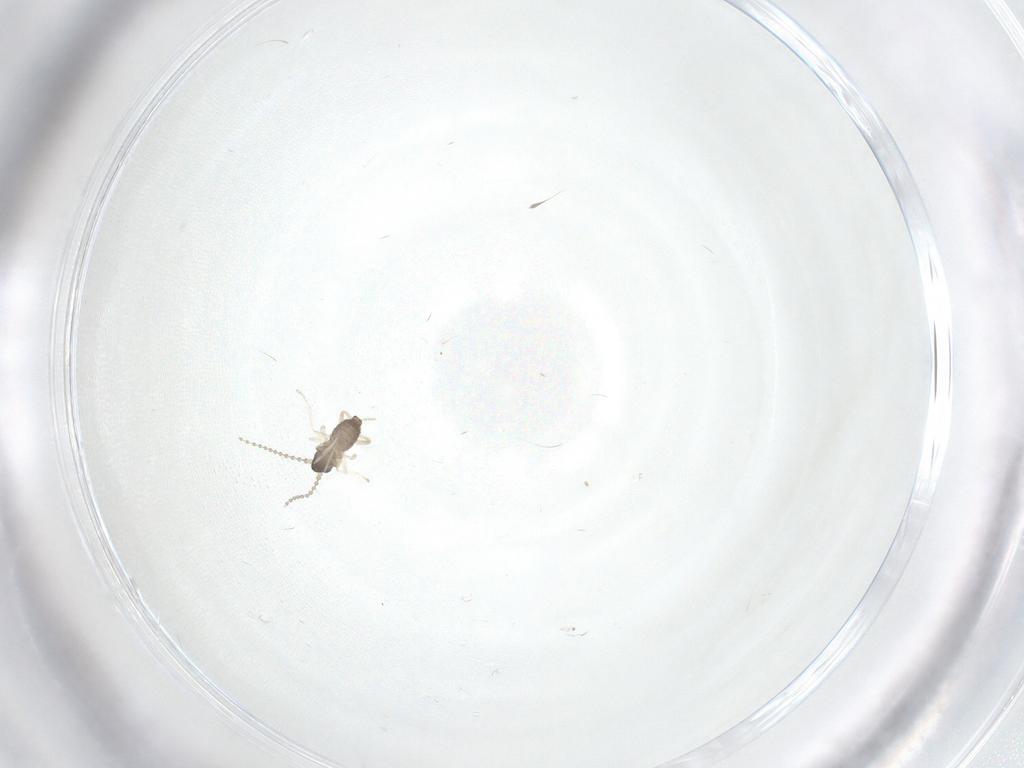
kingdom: Animalia
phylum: Arthropoda
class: Insecta
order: Diptera
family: Cecidomyiidae
